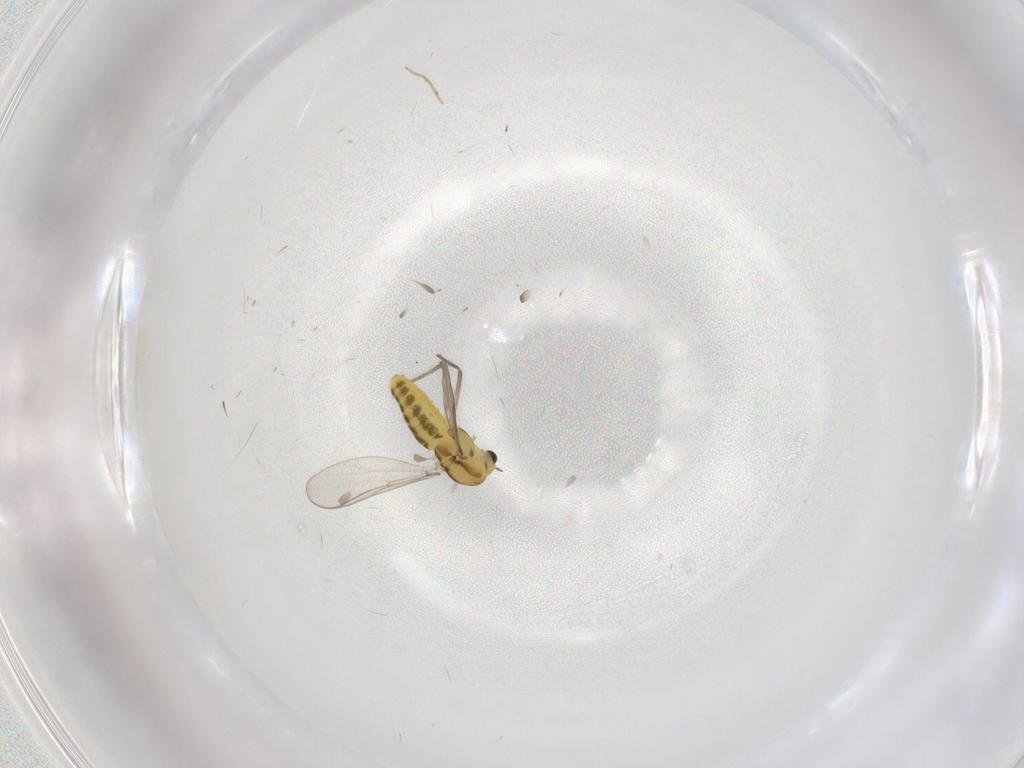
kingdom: Animalia
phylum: Arthropoda
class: Insecta
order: Diptera
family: Chironomidae
